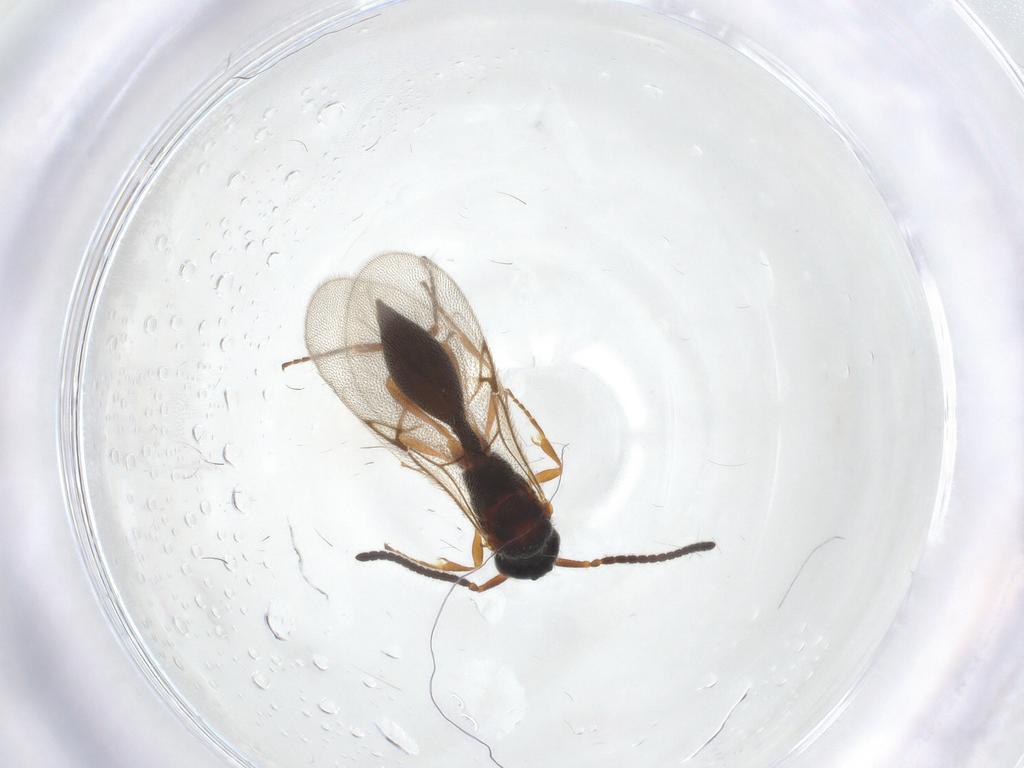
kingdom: Animalia
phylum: Arthropoda
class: Insecta
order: Hymenoptera
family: Diapriidae
